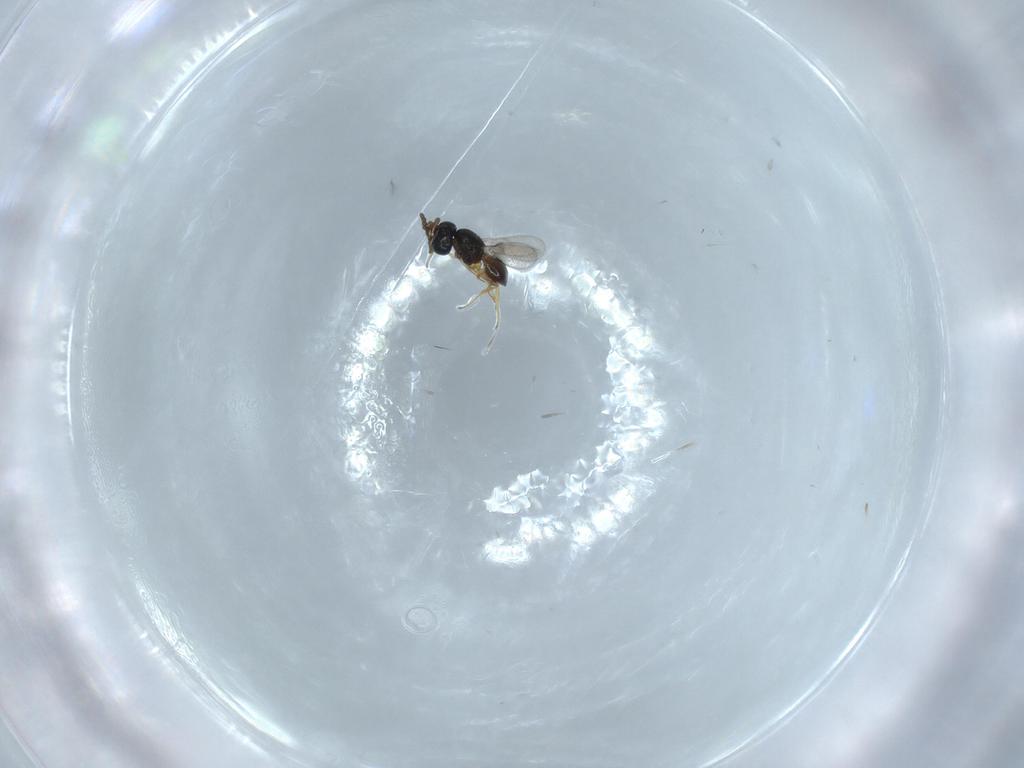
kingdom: Animalia
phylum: Arthropoda
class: Insecta
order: Hymenoptera
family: Scelionidae
